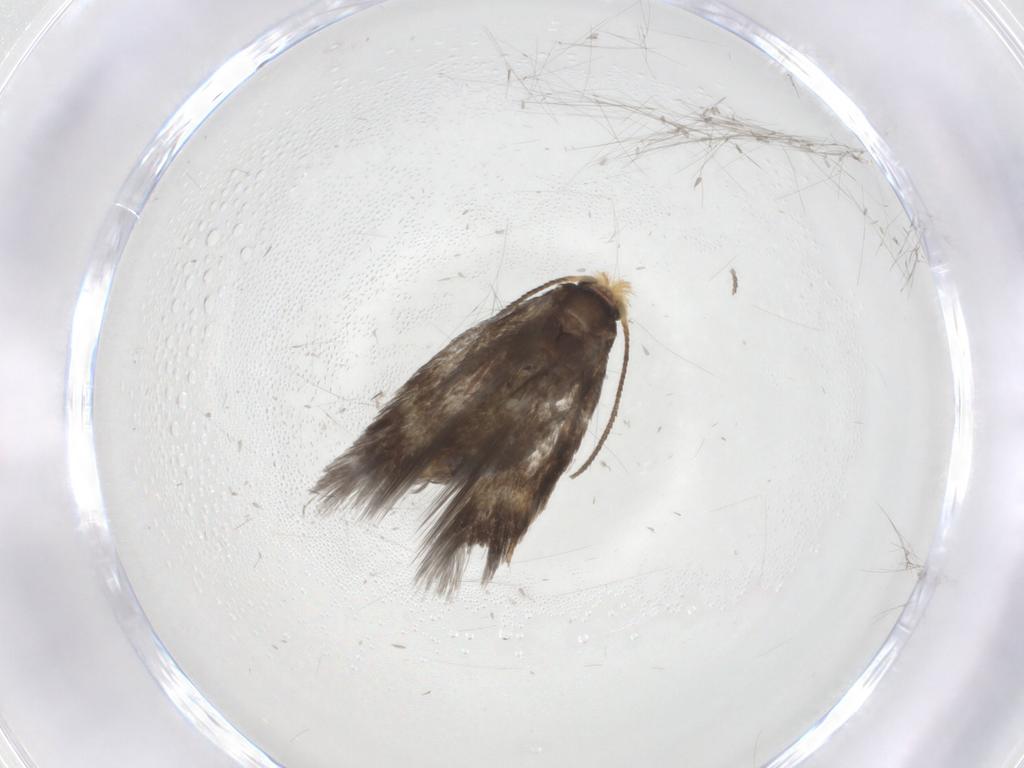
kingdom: Animalia
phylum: Arthropoda
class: Insecta
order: Lepidoptera
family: Nepticulidae
